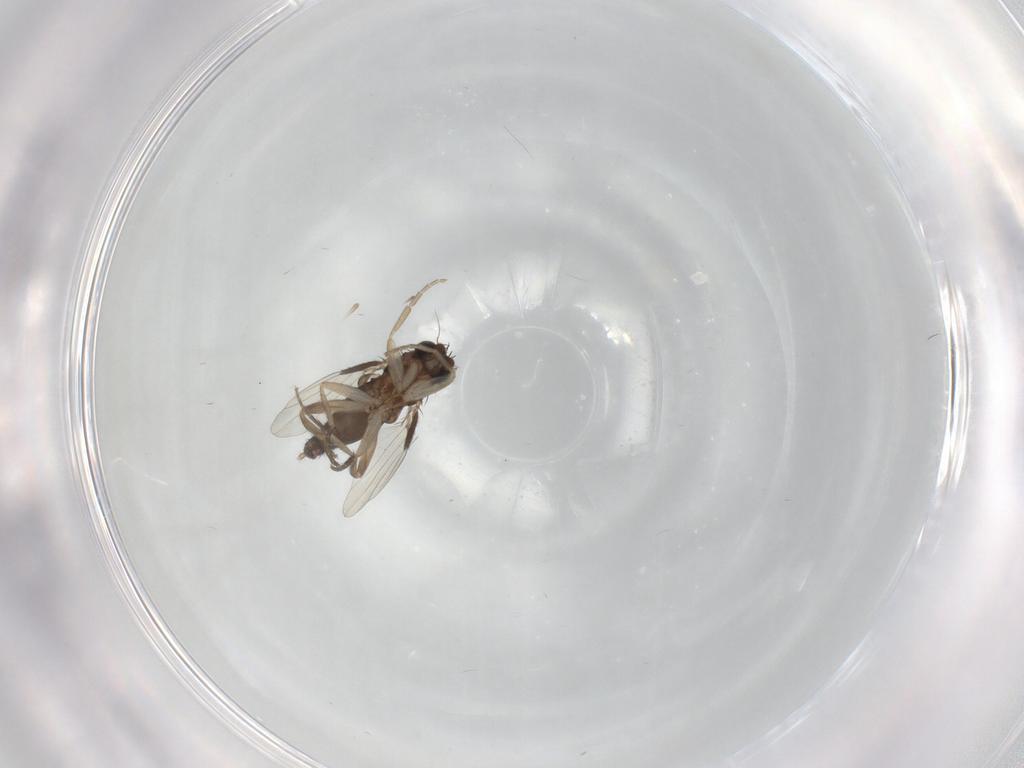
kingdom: Animalia
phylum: Arthropoda
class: Insecta
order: Diptera
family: Phoridae
